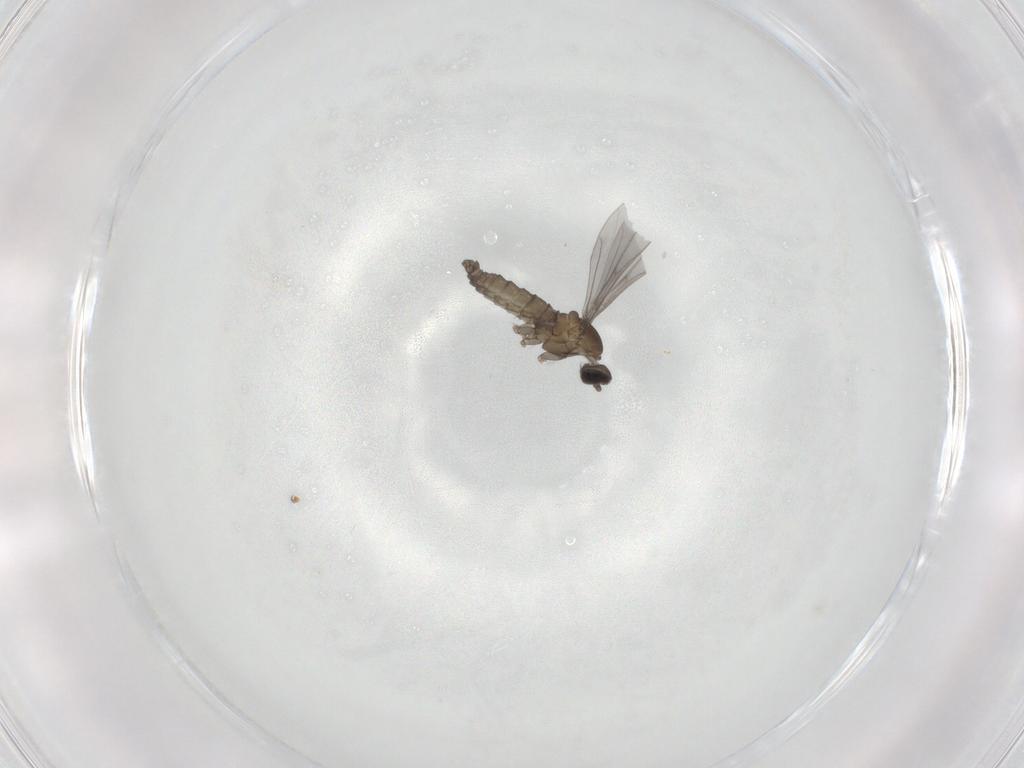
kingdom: Animalia
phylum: Arthropoda
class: Insecta
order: Diptera
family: Cecidomyiidae
